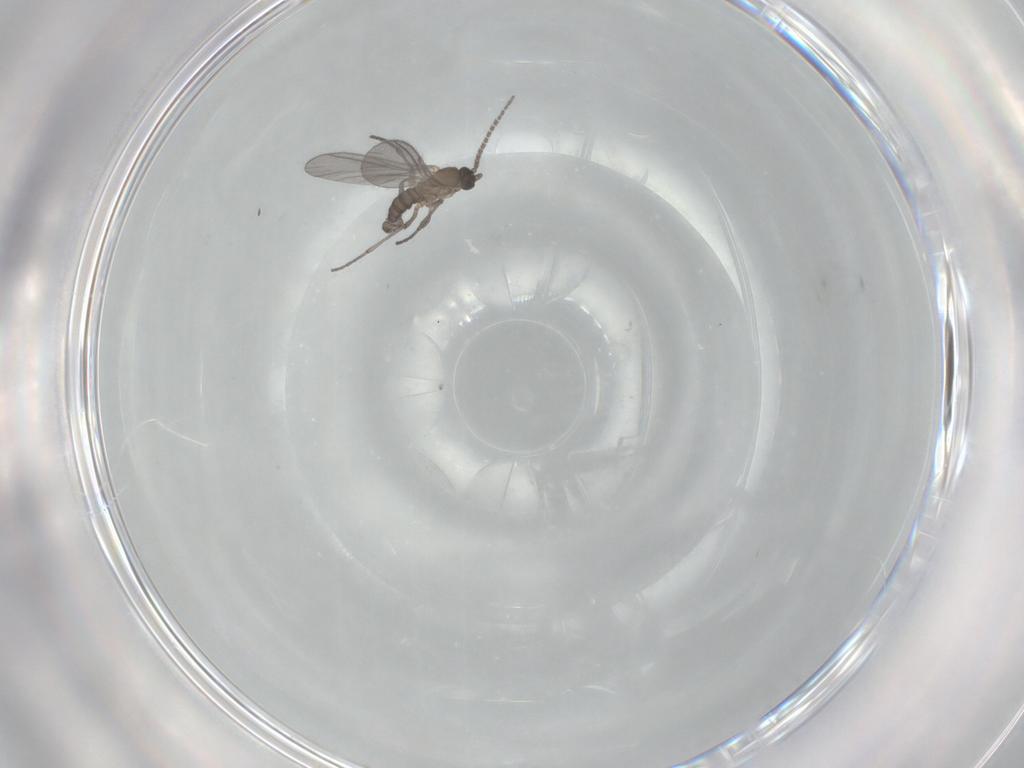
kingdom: Animalia
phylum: Arthropoda
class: Insecta
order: Diptera
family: Sciaridae
